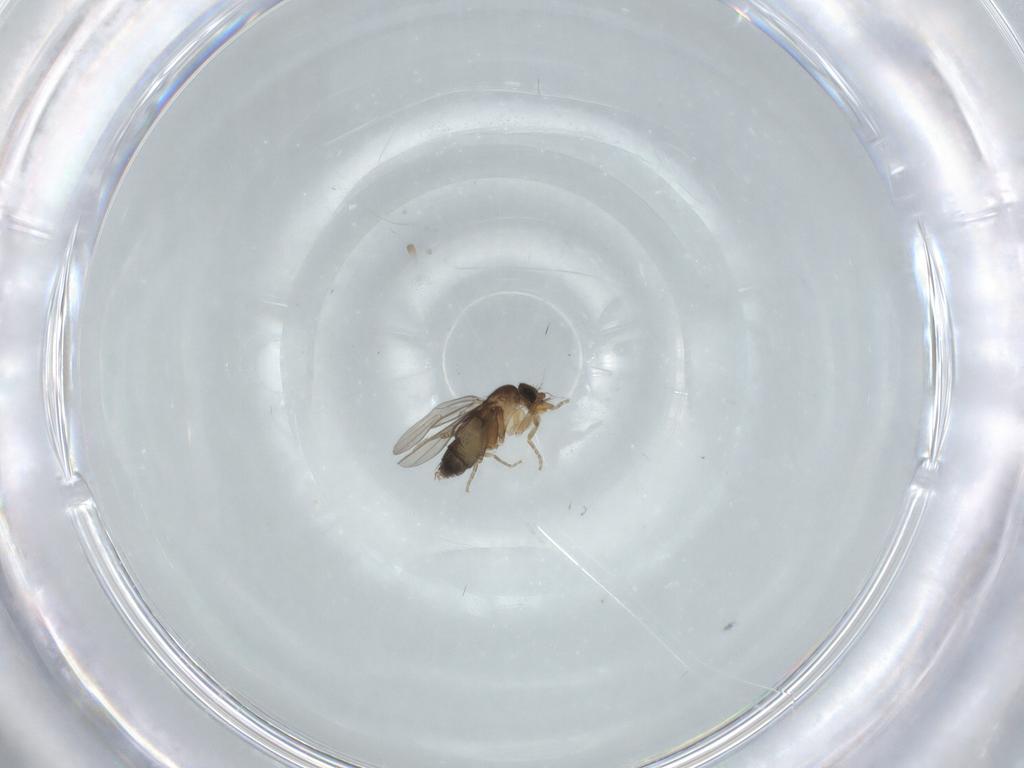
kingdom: Animalia
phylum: Arthropoda
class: Insecta
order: Diptera
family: Phoridae
